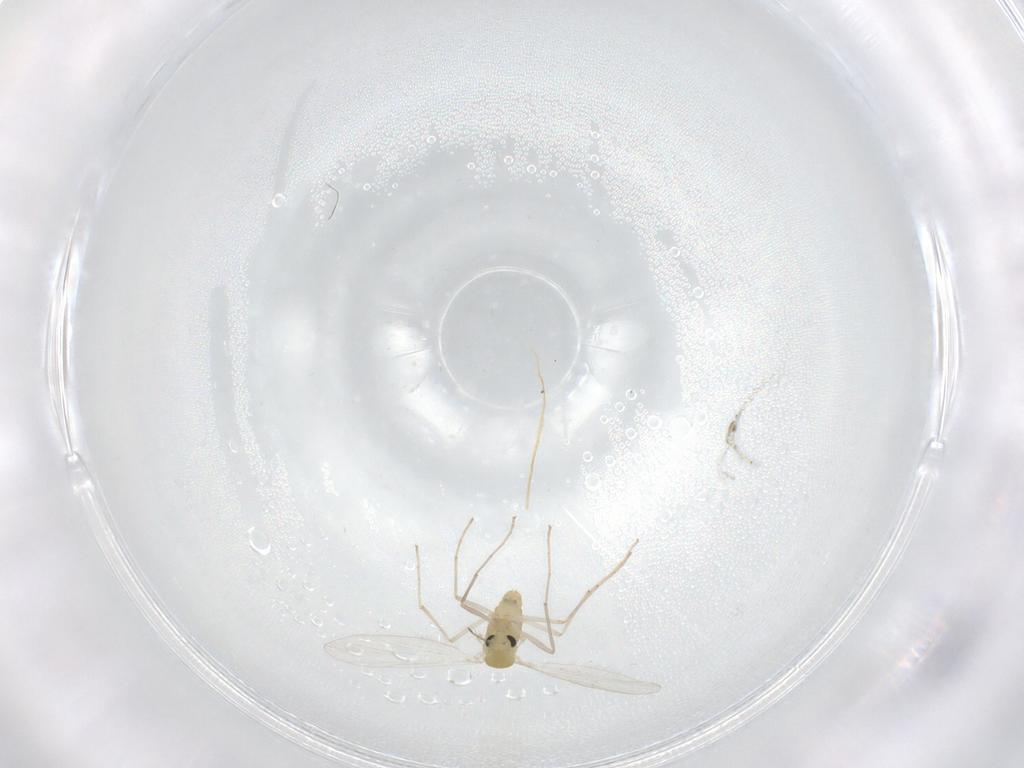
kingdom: Animalia
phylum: Arthropoda
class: Insecta
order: Diptera
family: Chironomidae
